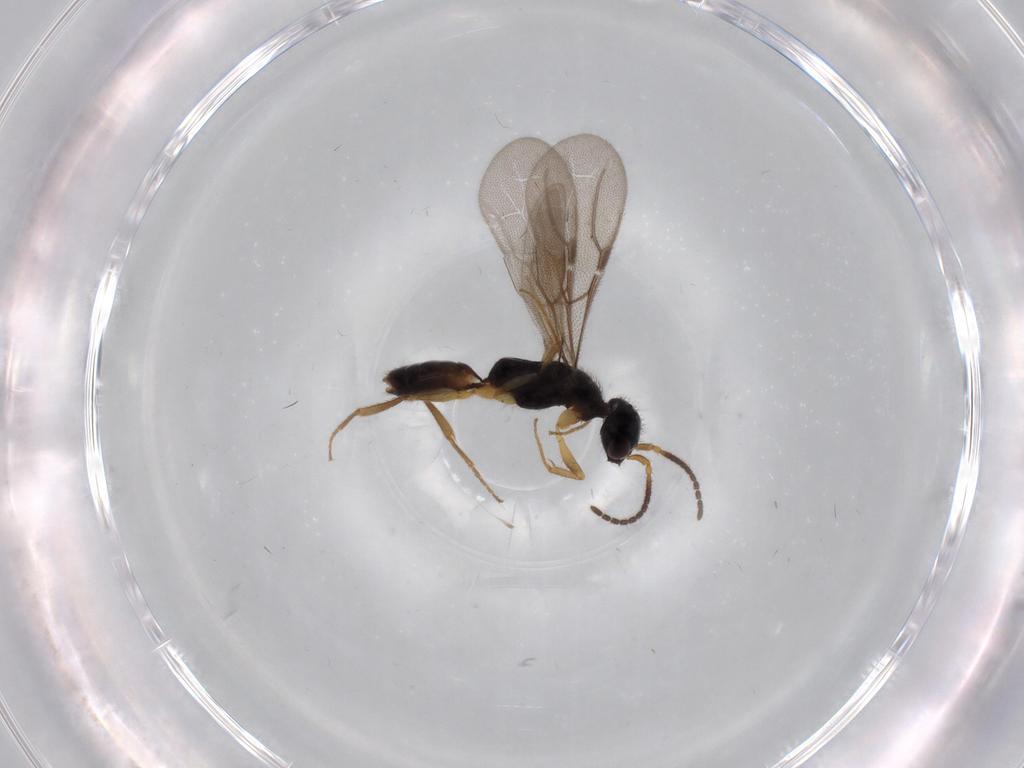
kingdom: Animalia
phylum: Arthropoda
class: Insecta
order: Hymenoptera
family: Bethylidae
